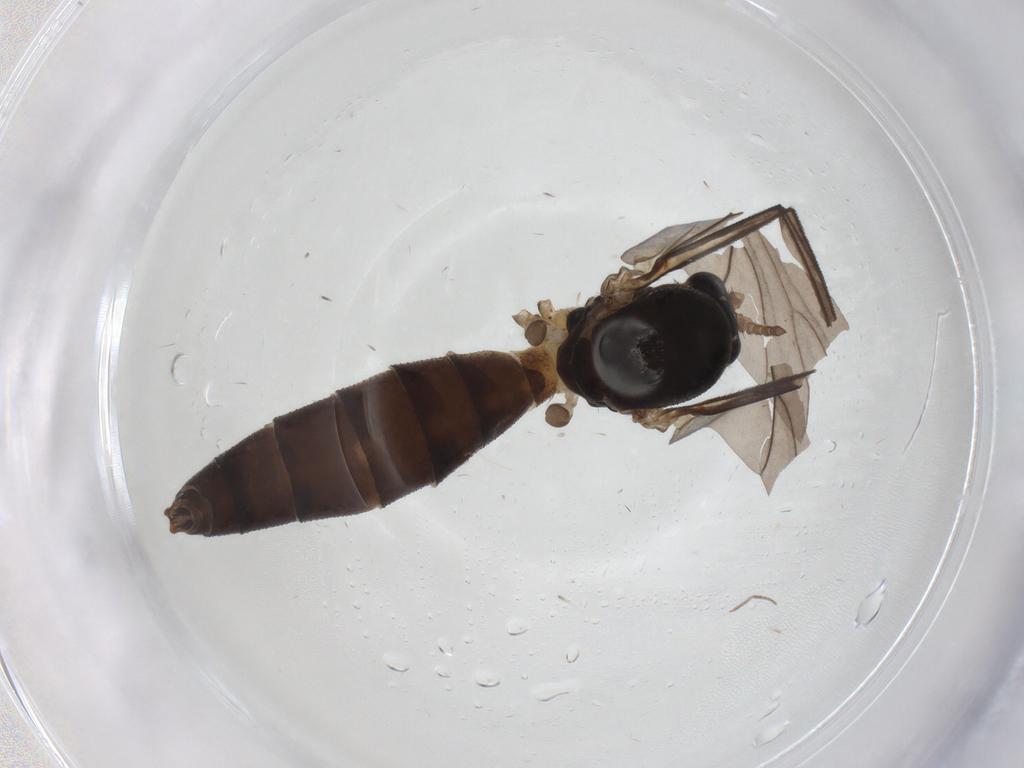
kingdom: Animalia
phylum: Arthropoda
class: Insecta
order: Diptera
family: Mycetophilidae
